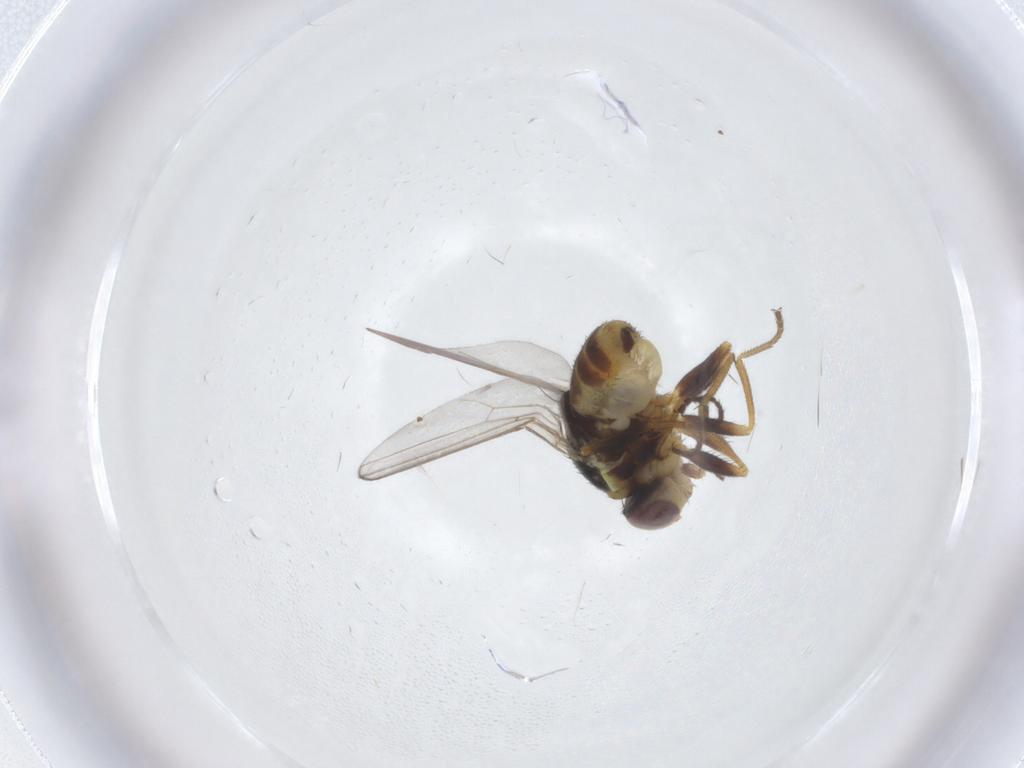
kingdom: Animalia
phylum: Arthropoda
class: Insecta
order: Diptera
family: Chloropidae
